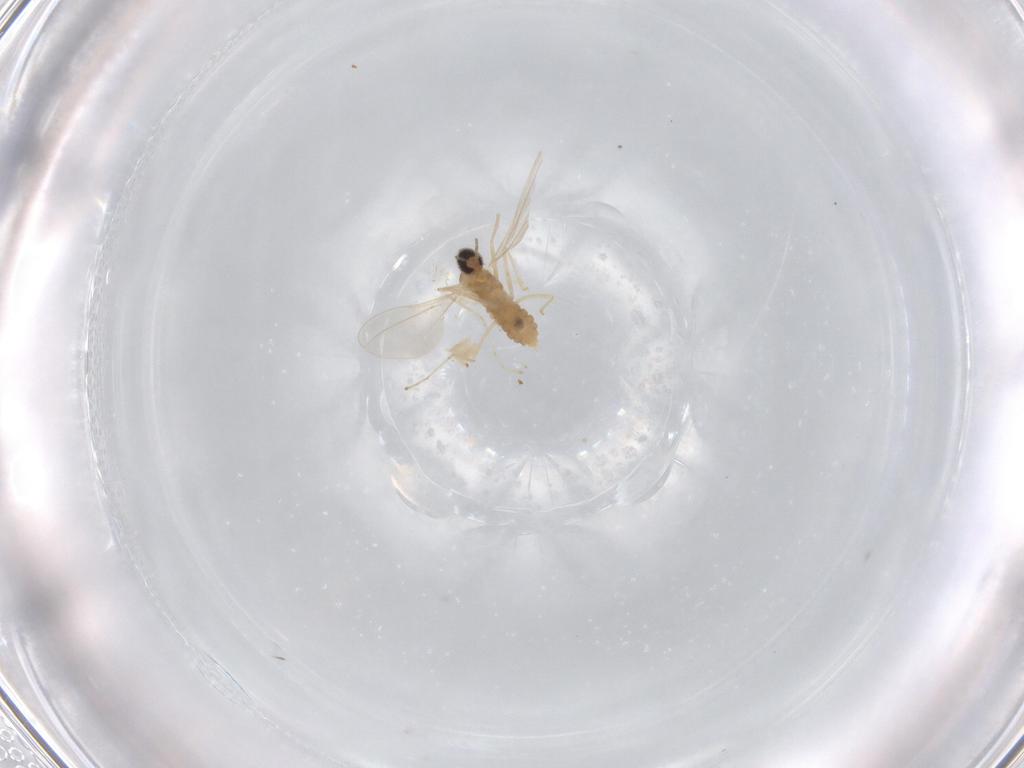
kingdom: Animalia
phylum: Arthropoda
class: Insecta
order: Diptera
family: Cecidomyiidae
